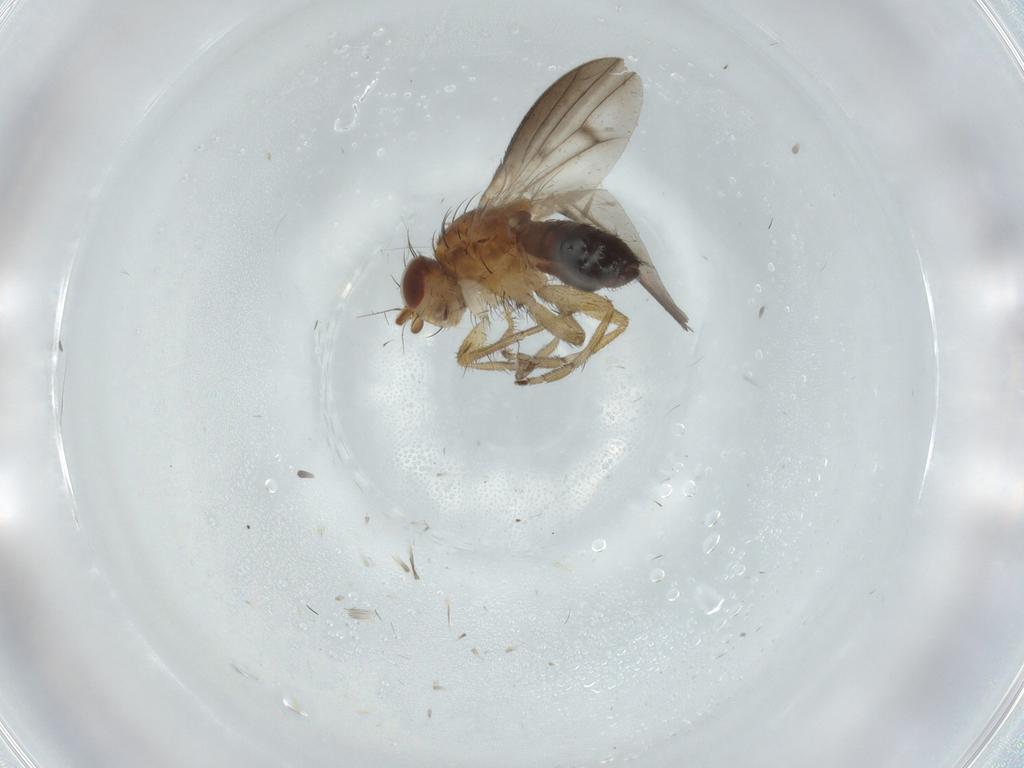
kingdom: Animalia
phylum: Arthropoda
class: Insecta
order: Diptera
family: Heleomyzidae
